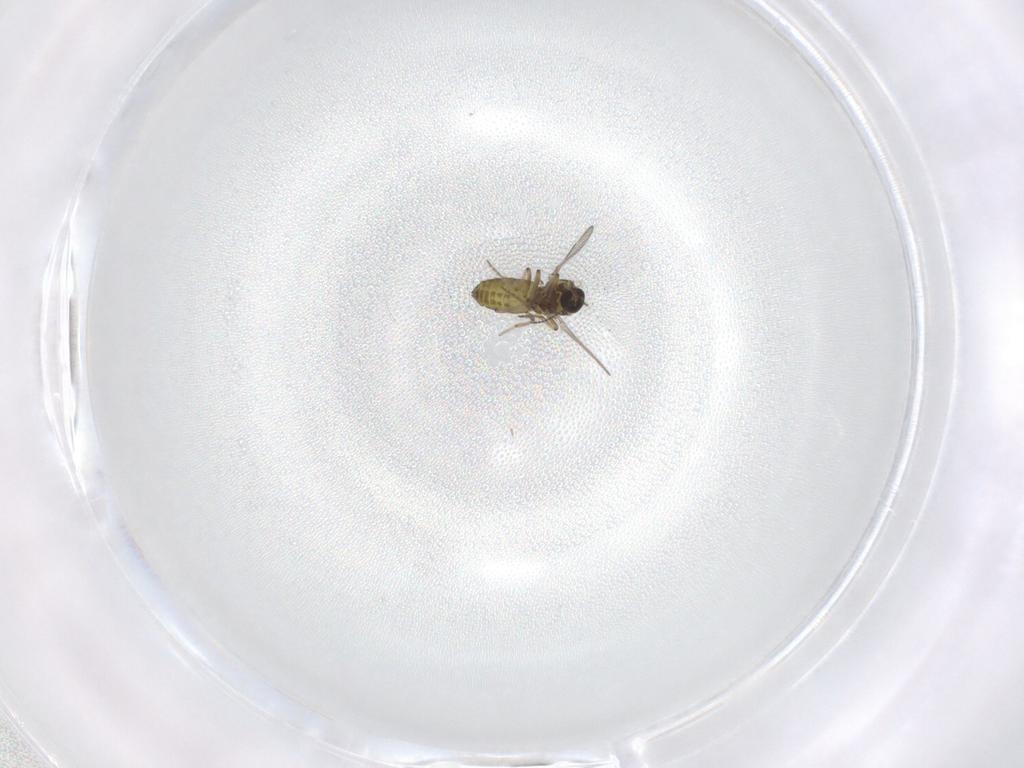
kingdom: Animalia
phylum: Arthropoda
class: Insecta
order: Diptera
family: Ceratopogonidae
